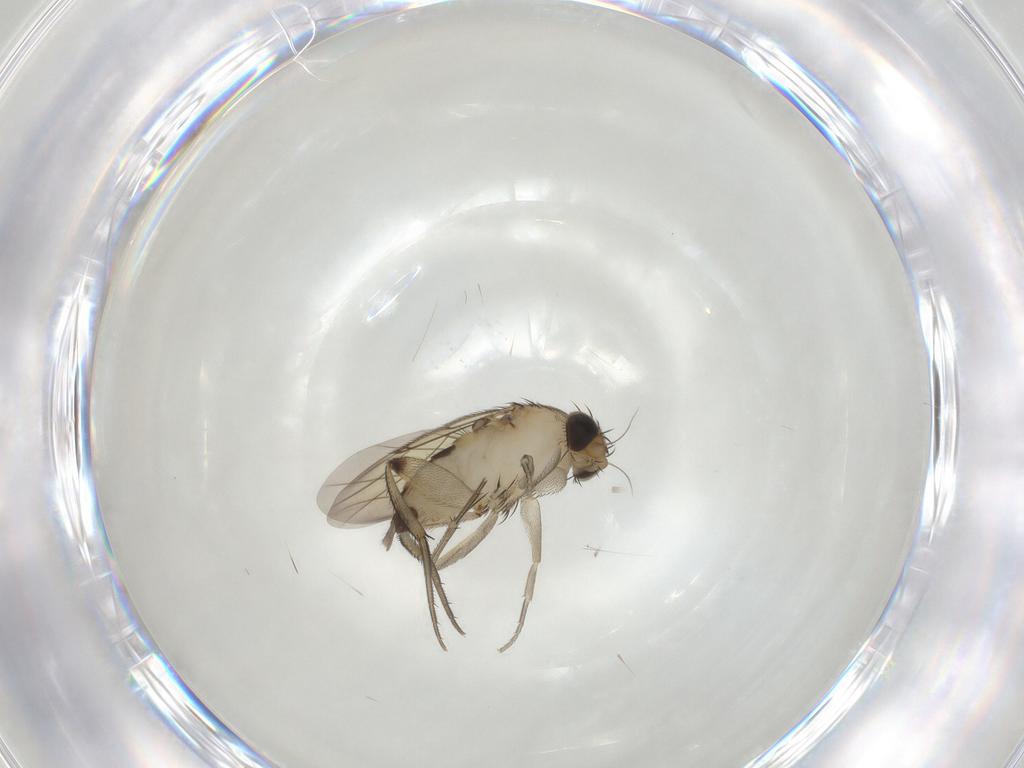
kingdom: Animalia
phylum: Arthropoda
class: Insecta
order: Diptera
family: Phoridae
